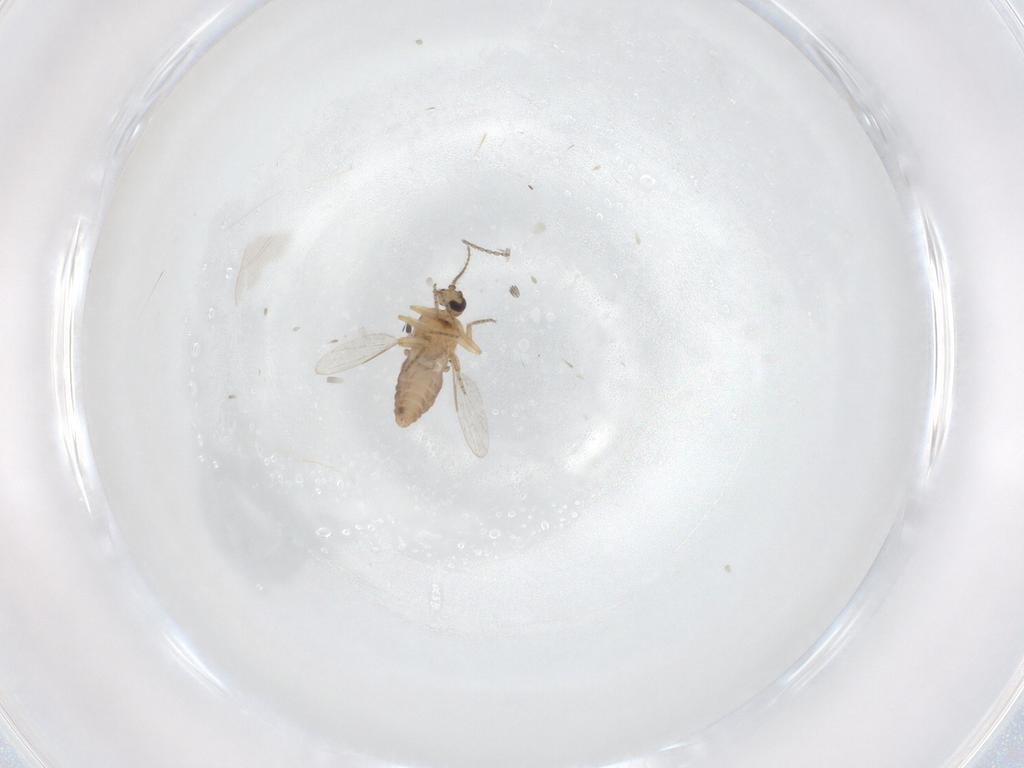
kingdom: Animalia
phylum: Arthropoda
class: Insecta
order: Diptera
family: Ceratopogonidae
